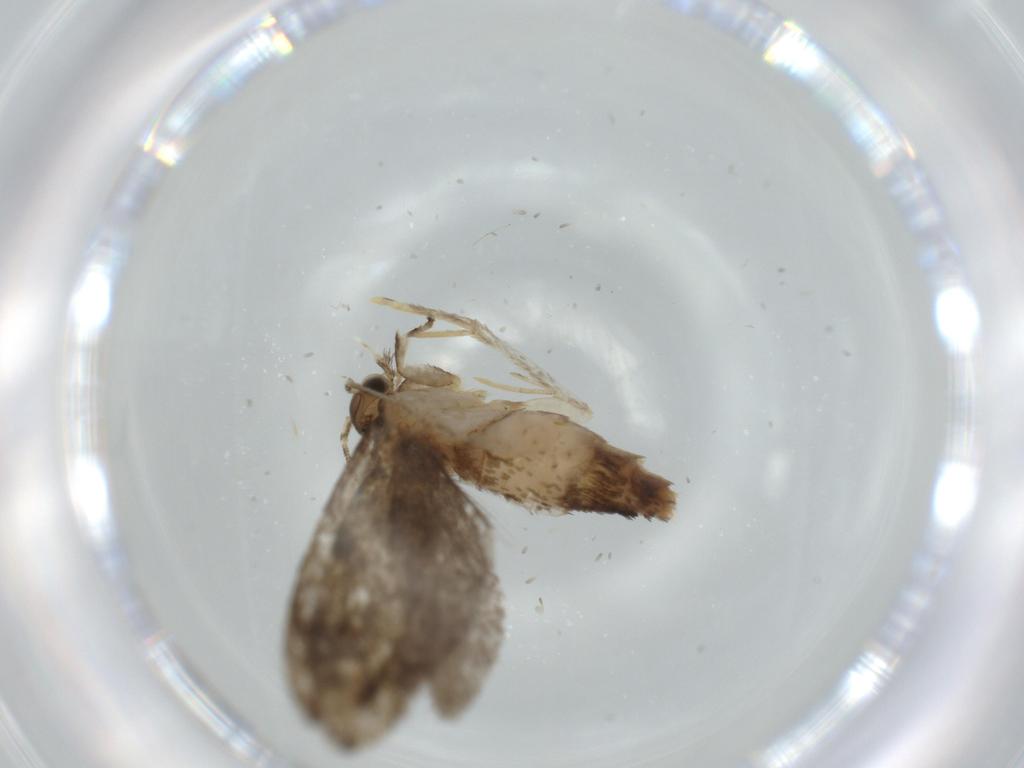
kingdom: Animalia
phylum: Arthropoda
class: Insecta
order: Lepidoptera
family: Tineidae
